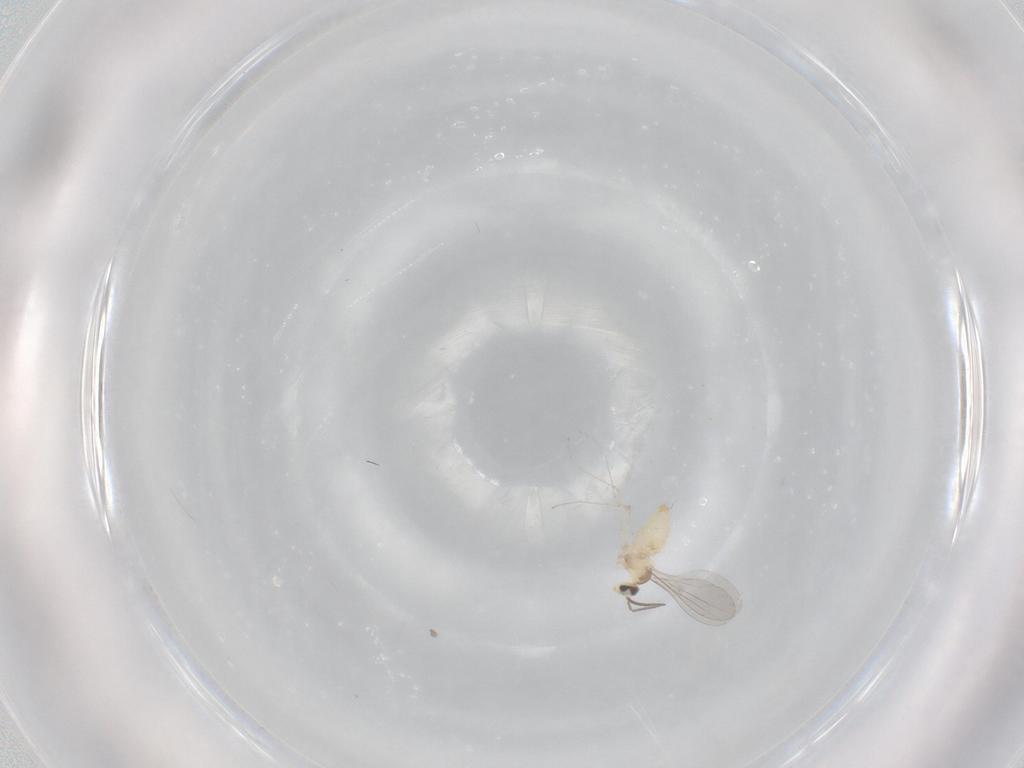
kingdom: Animalia
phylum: Arthropoda
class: Insecta
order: Diptera
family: Cecidomyiidae
